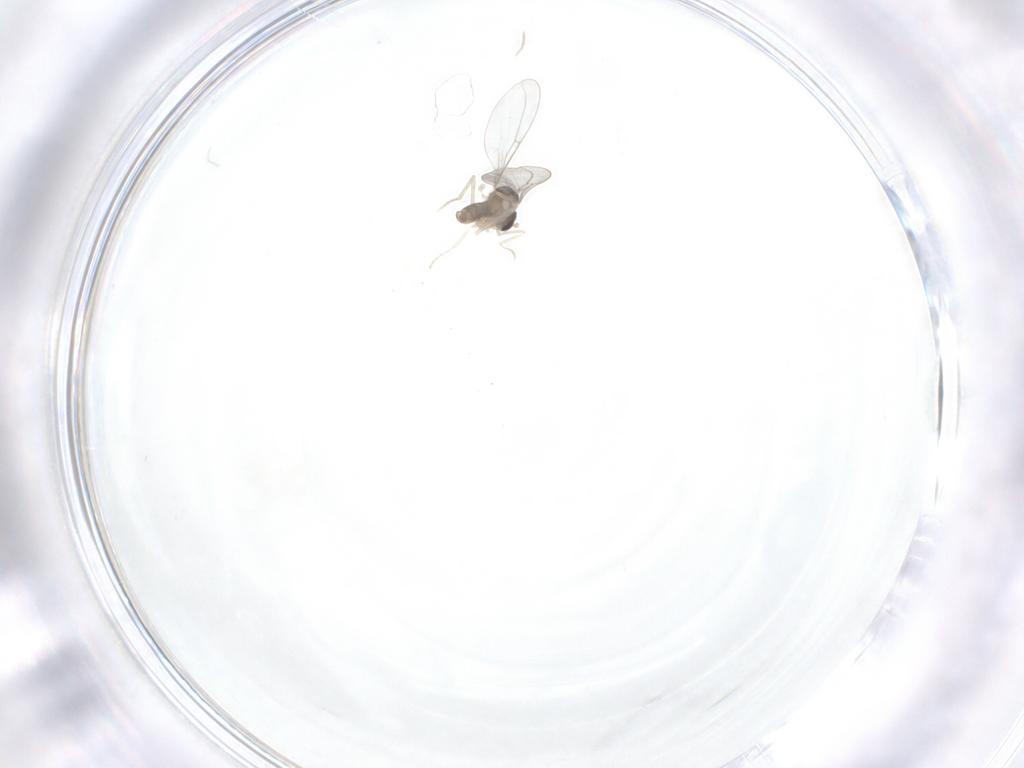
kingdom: Animalia
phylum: Arthropoda
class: Insecta
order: Diptera
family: Cecidomyiidae
